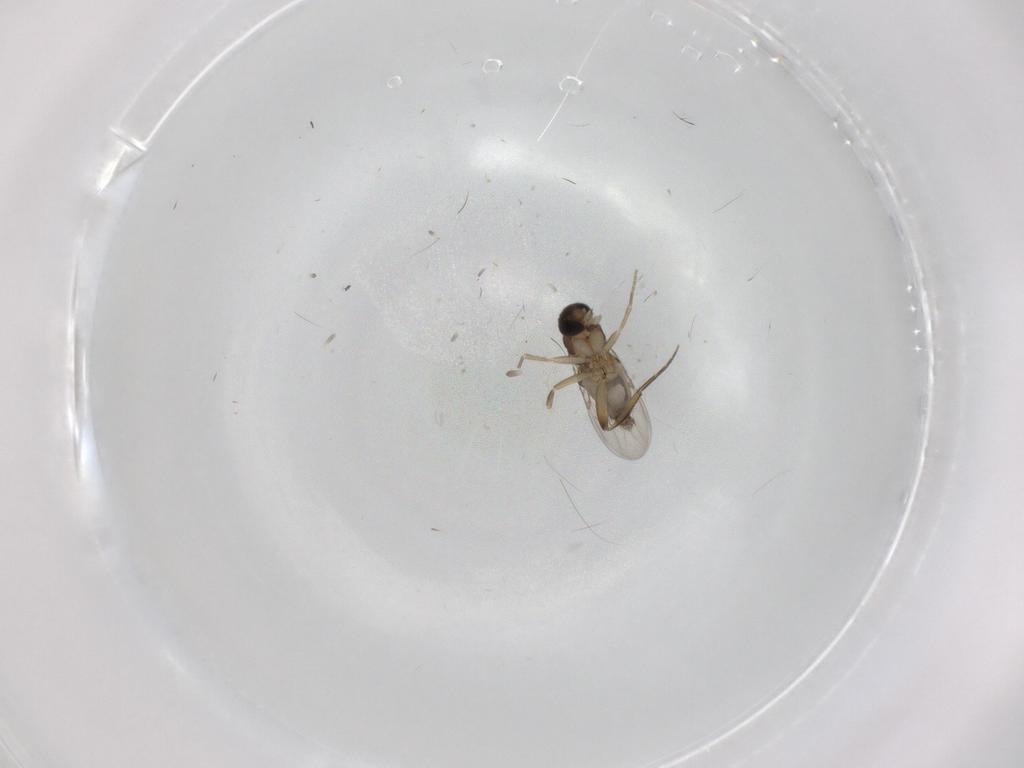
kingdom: Animalia
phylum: Arthropoda
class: Insecta
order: Diptera
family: Phoridae
